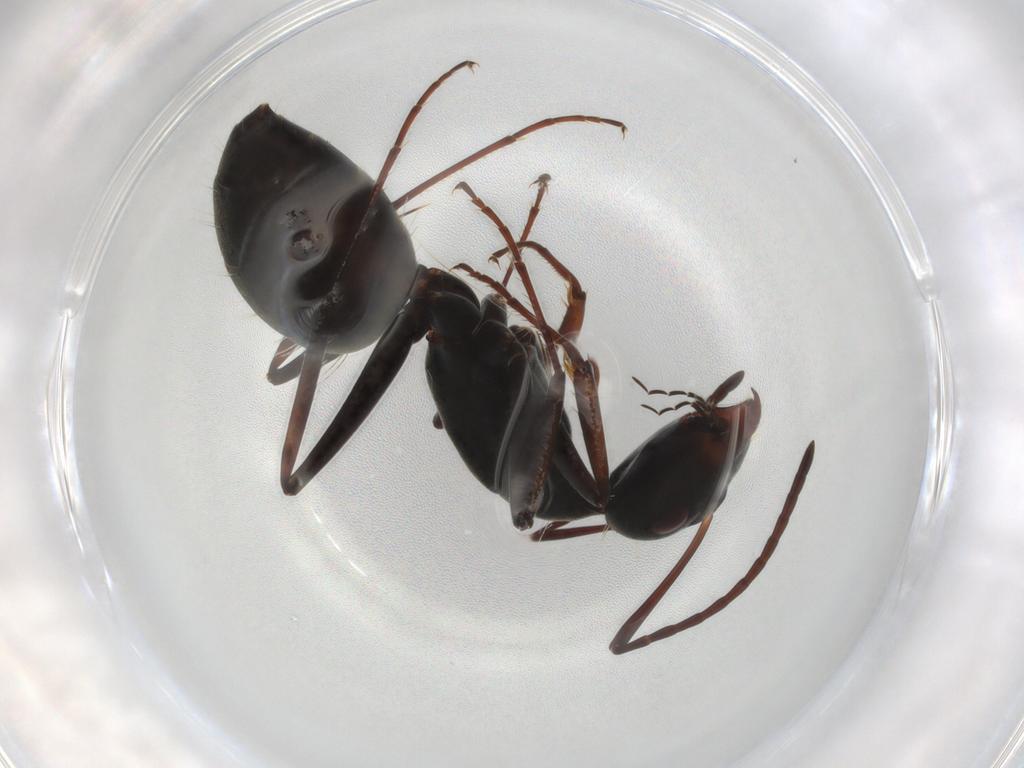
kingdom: Animalia
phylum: Arthropoda
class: Insecta
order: Hymenoptera
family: Formicidae
